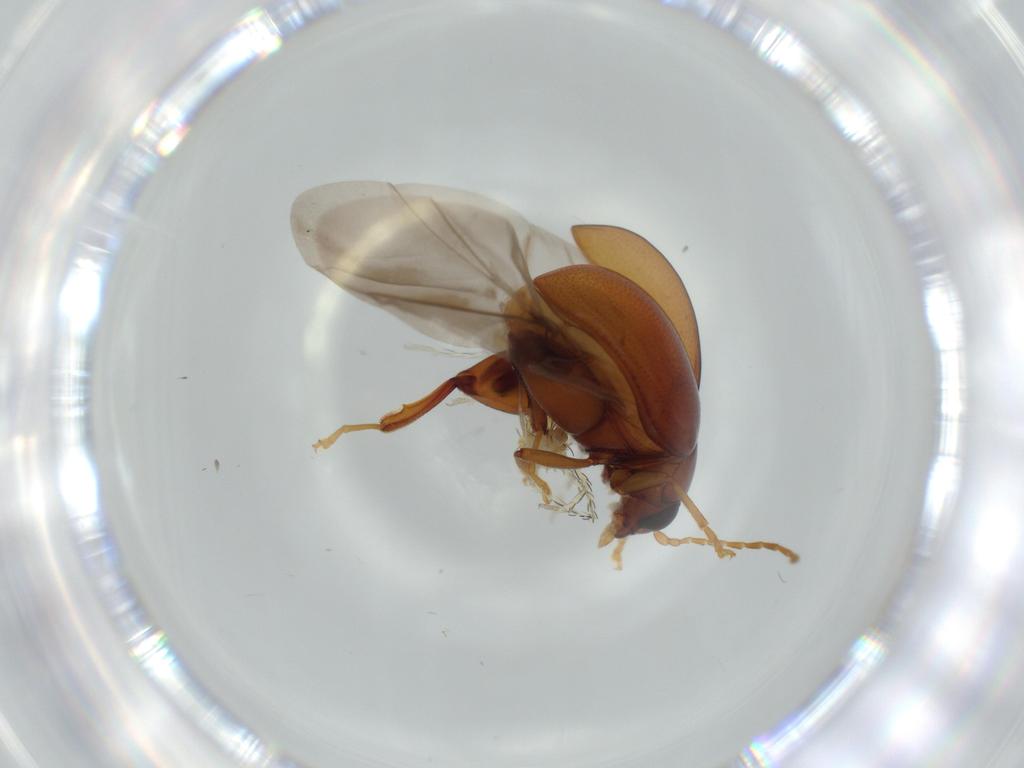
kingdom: Animalia
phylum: Arthropoda
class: Insecta
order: Coleoptera
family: Chrysomelidae
